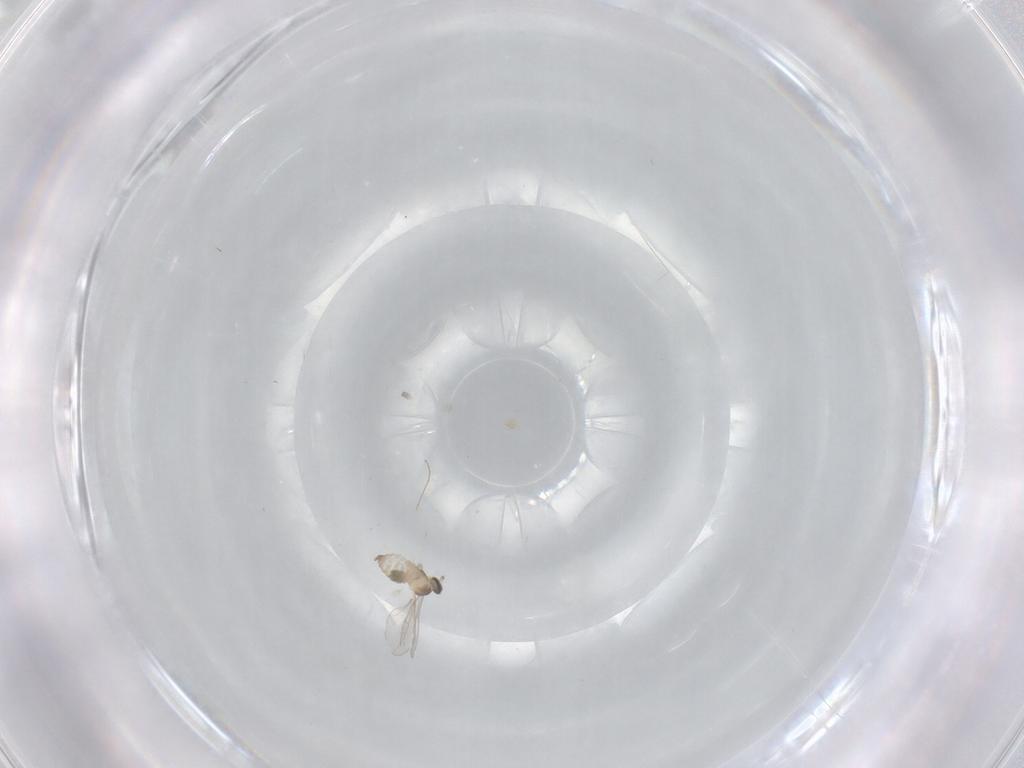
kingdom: Animalia
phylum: Arthropoda
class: Insecta
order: Diptera
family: Cecidomyiidae
